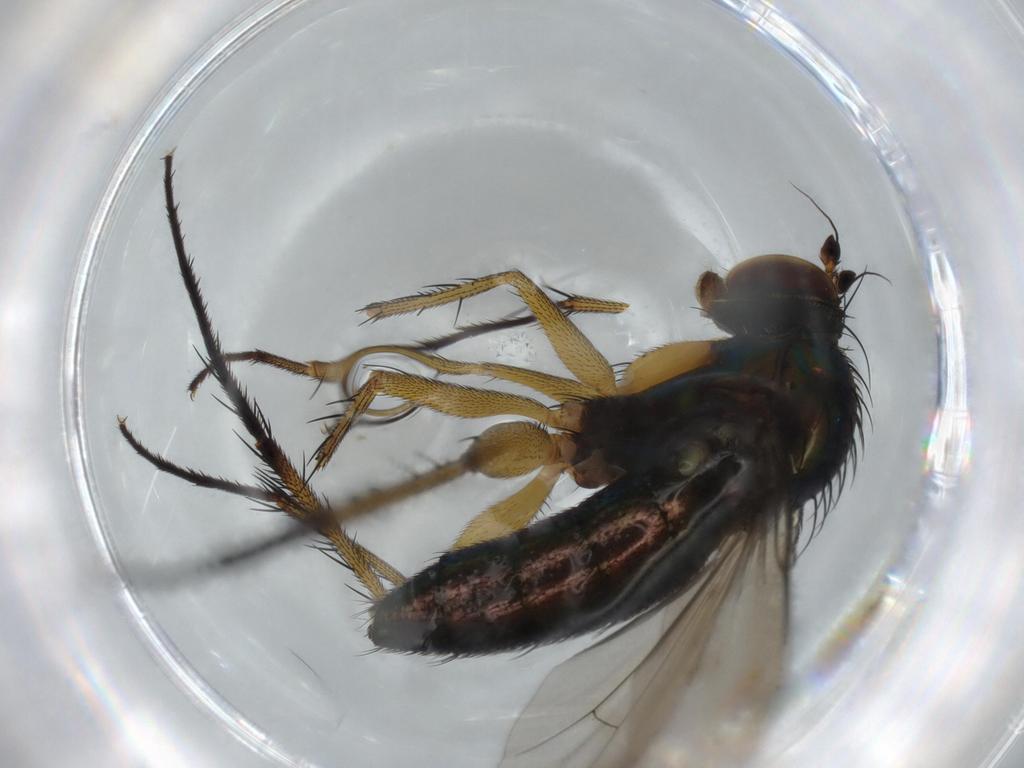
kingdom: Animalia
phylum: Arthropoda
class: Insecta
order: Diptera
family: Dolichopodidae
